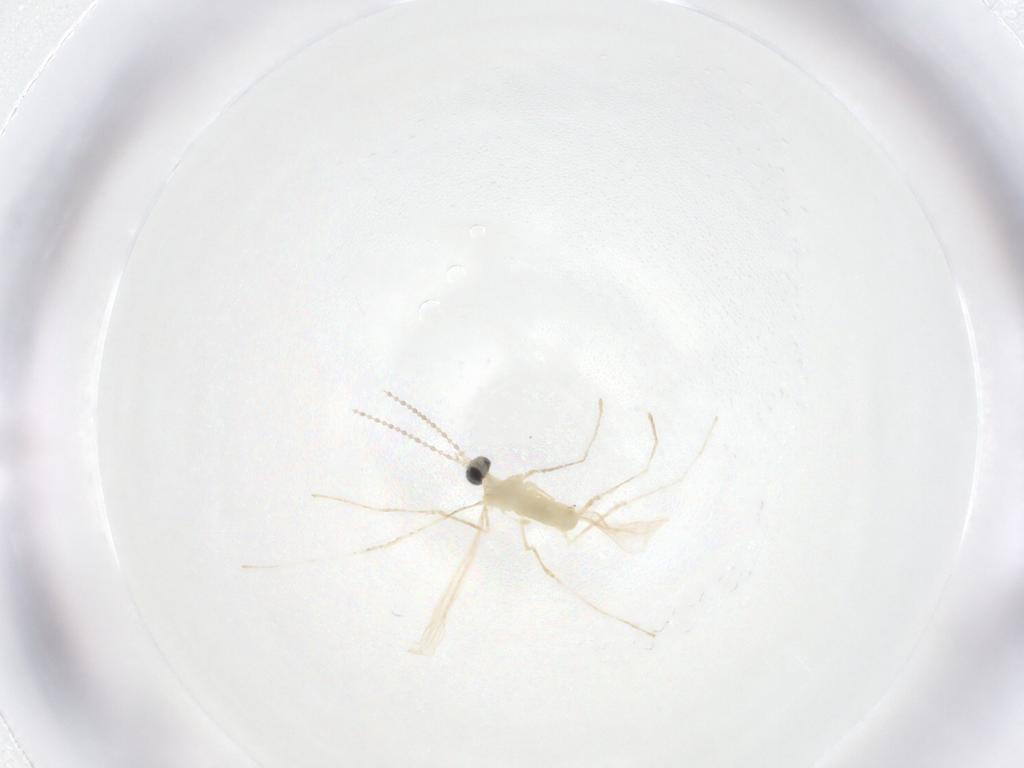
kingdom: Animalia
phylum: Arthropoda
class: Insecta
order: Hymenoptera
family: Dryinidae
